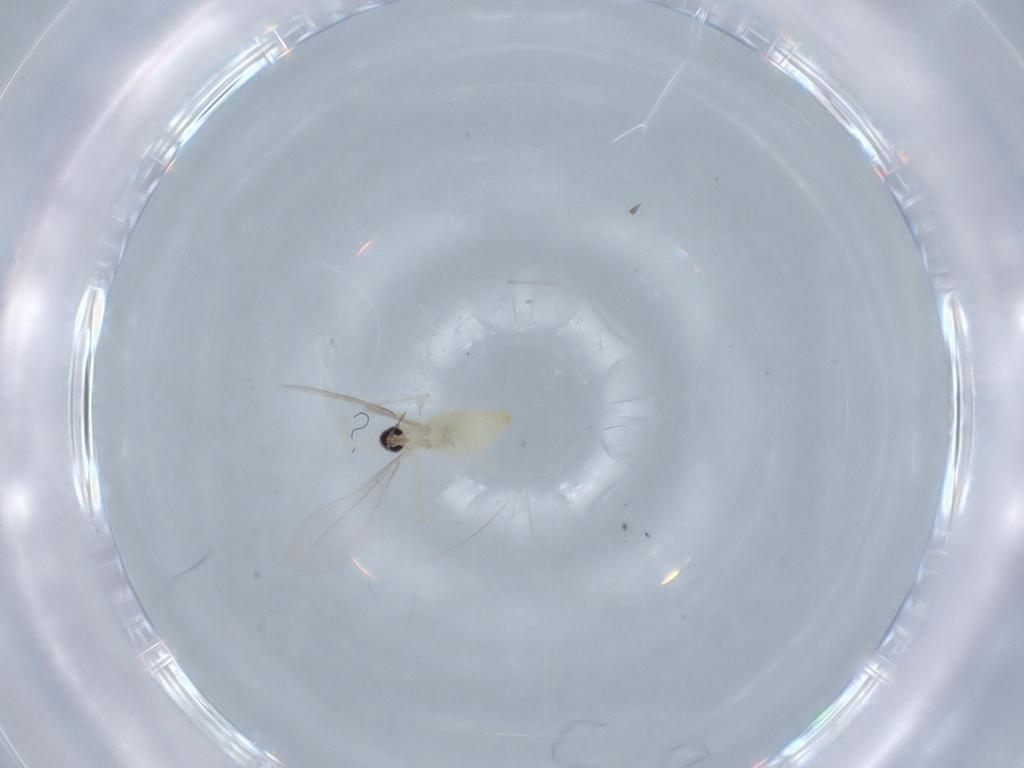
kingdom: Animalia
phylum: Arthropoda
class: Insecta
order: Diptera
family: Cecidomyiidae
